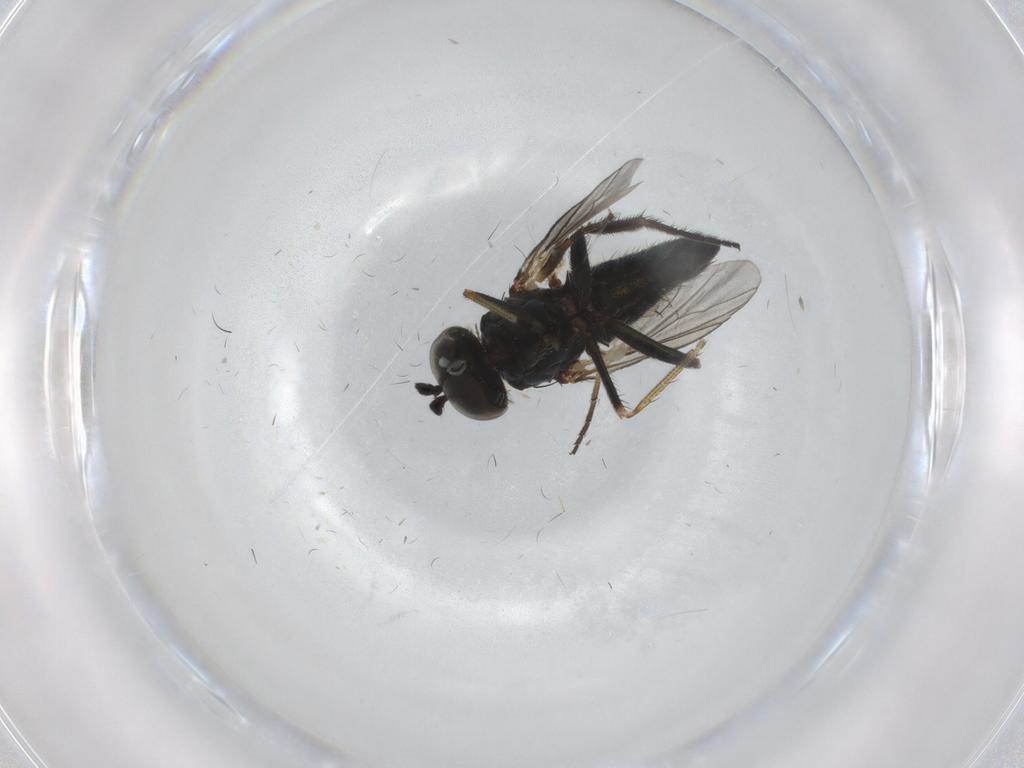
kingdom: Animalia
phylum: Arthropoda
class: Insecta
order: Diptera
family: Dolichopodidae
